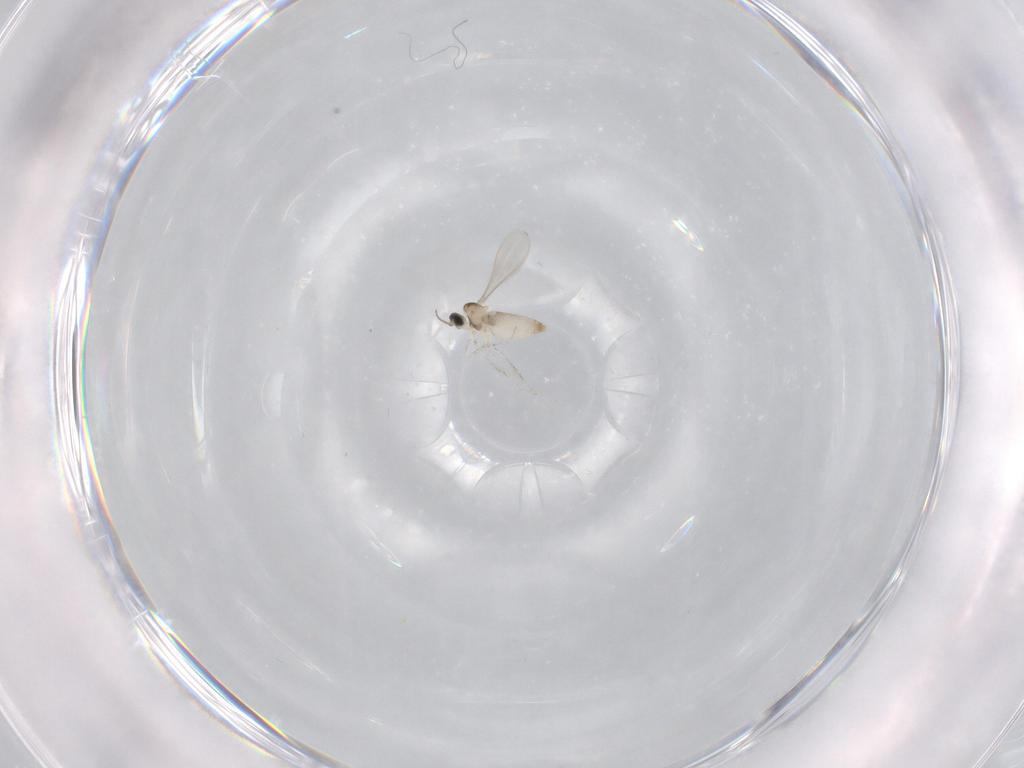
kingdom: Animalia
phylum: Arthropoda
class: Insecta
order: Diptera
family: Cecidomyiidae
